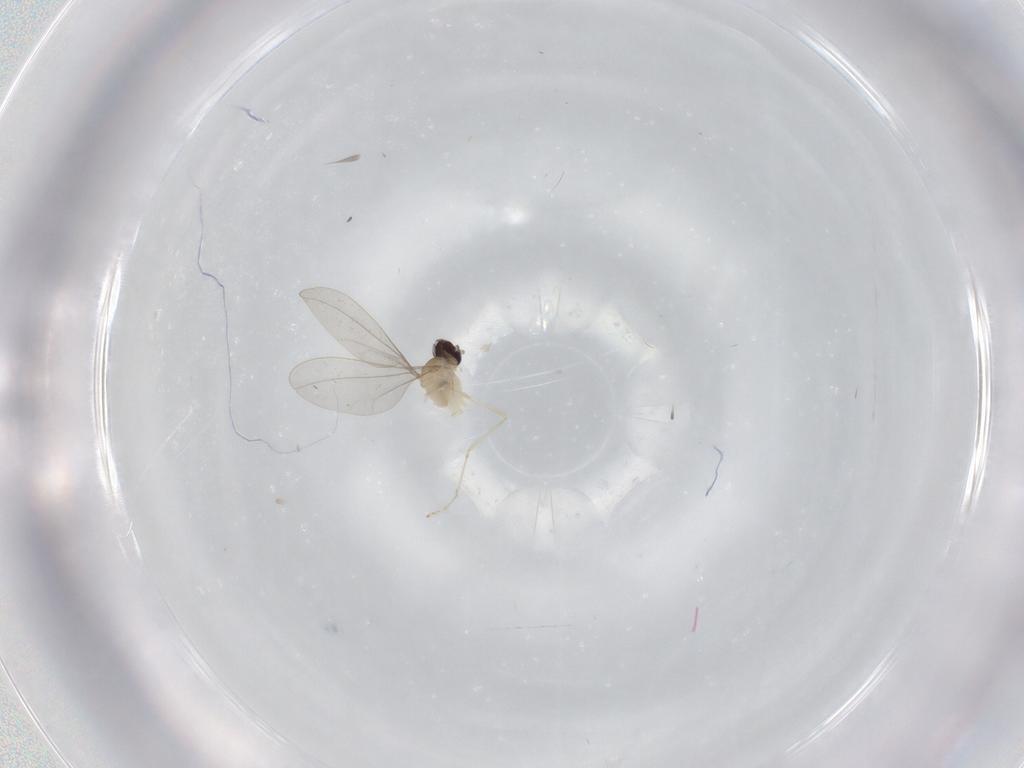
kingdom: Animalia
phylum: Arthropoda
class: Insecta
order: Diptera
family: Cecidomyiidae
